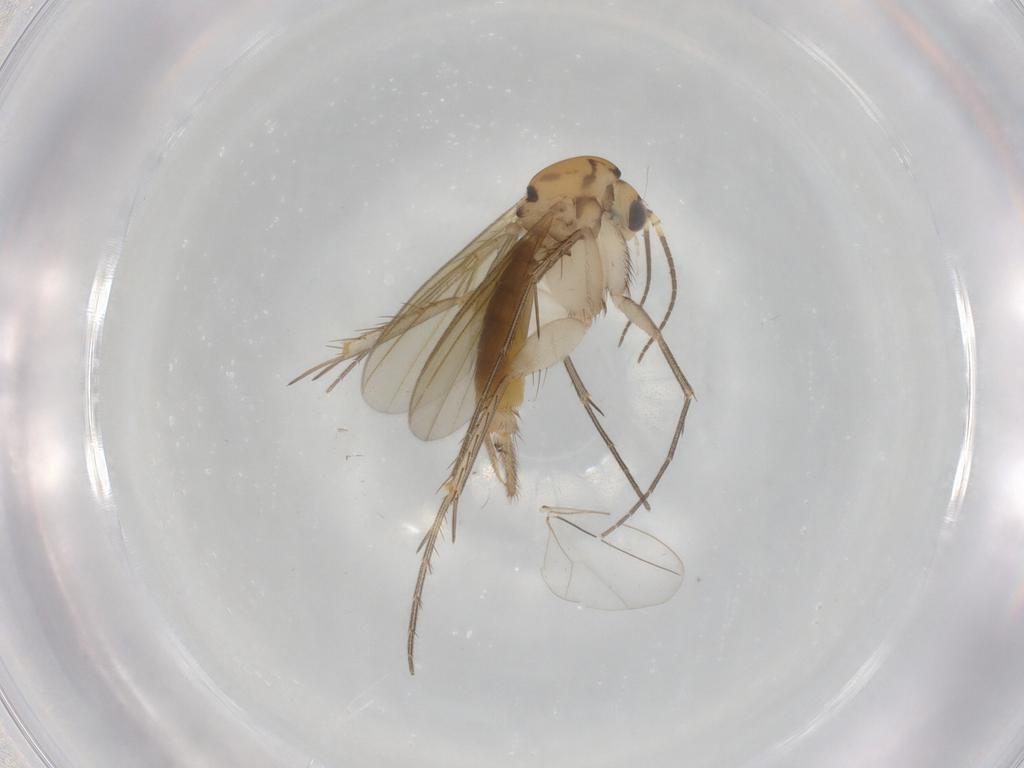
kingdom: Animalia
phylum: Arthropoda
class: Insecta
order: Diptera
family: Mycetophilidae
